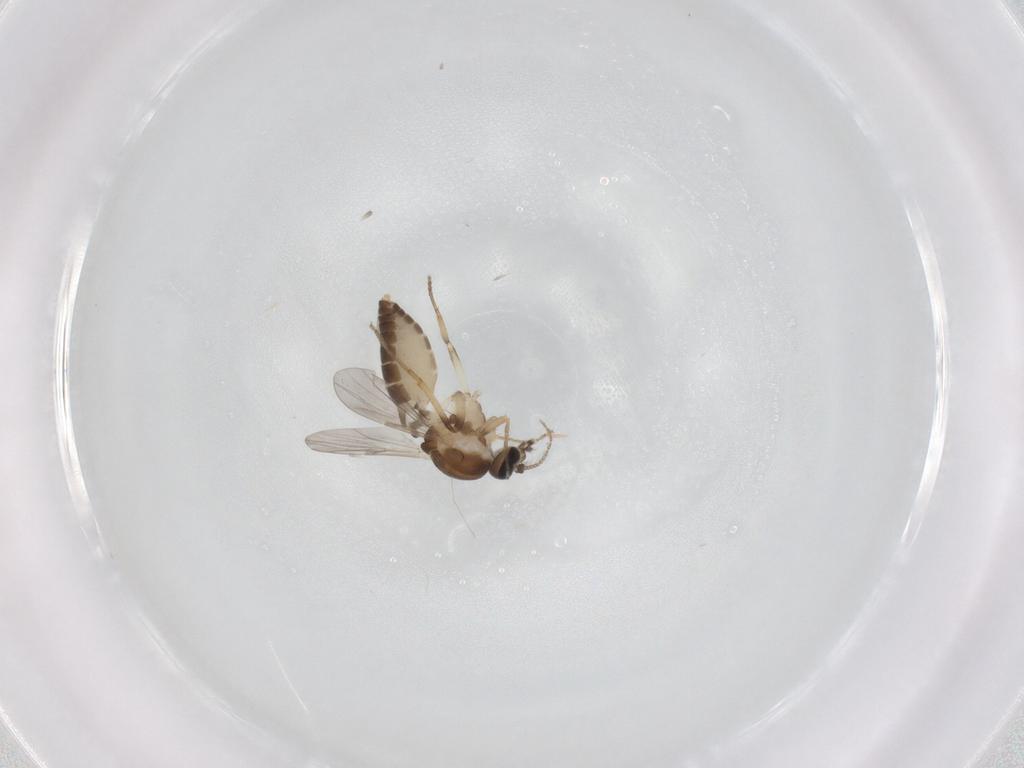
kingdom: Animalia
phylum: Arthropoda
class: Insecta
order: Diptera
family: Ceratopogonidae
